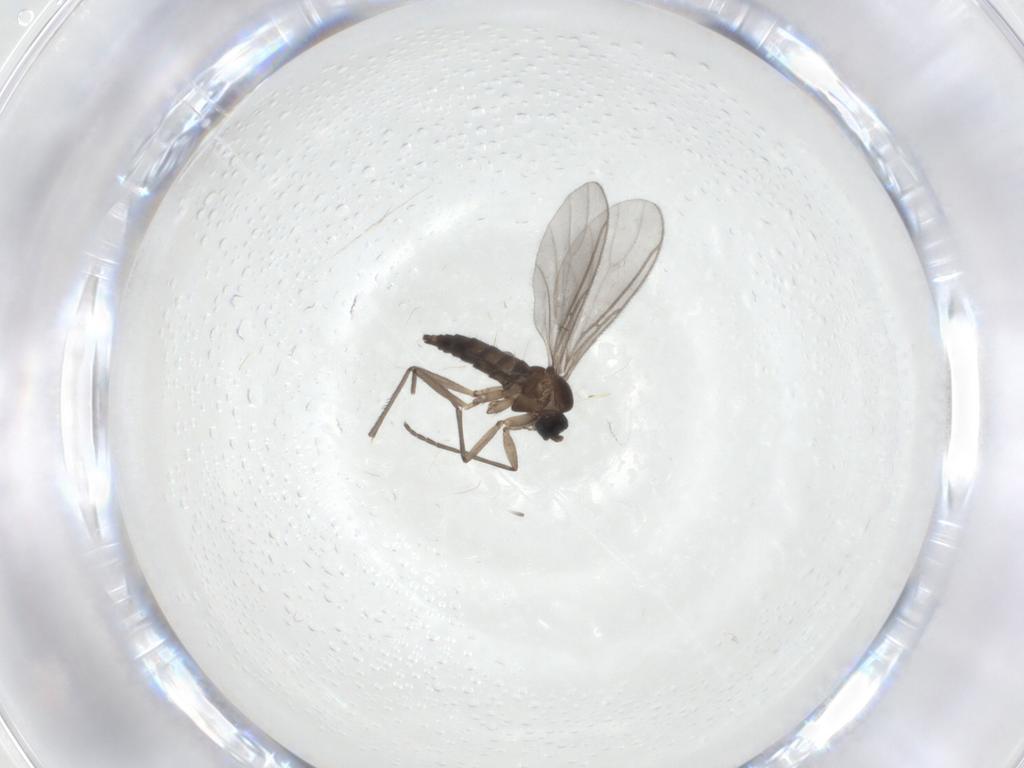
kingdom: Animalia
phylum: Arthropoda
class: Insecta
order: Diptera
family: Sciaridae
